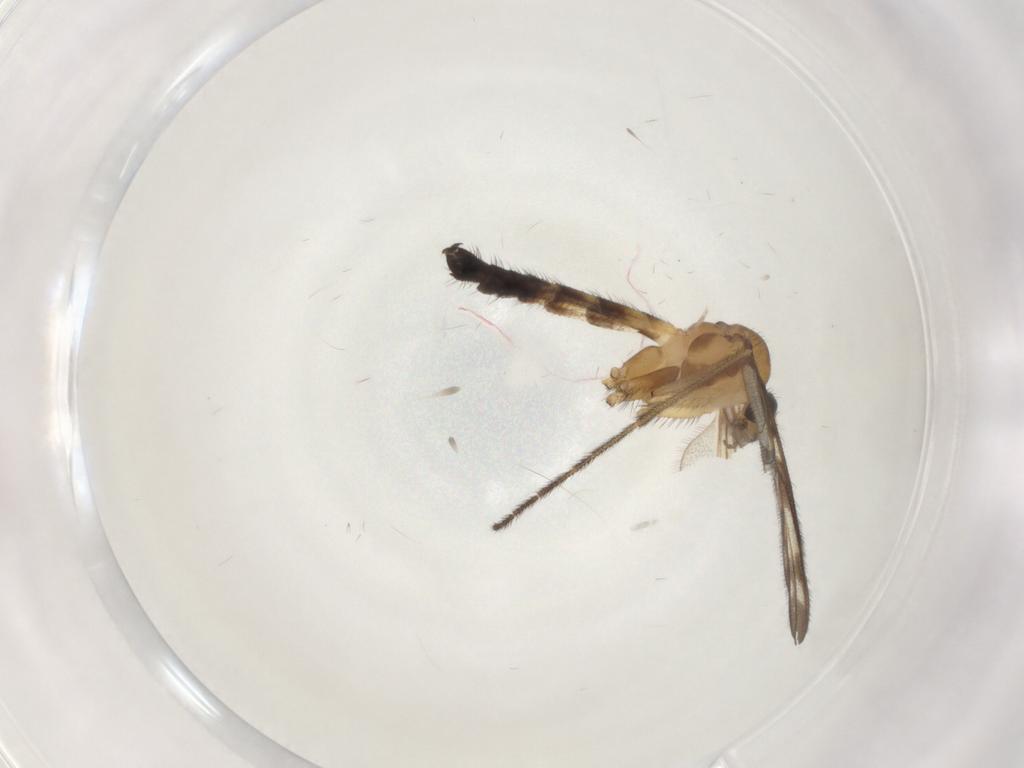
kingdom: Animalia
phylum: Arthropoda
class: Insecta
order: Diptera
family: Keroplatidae
